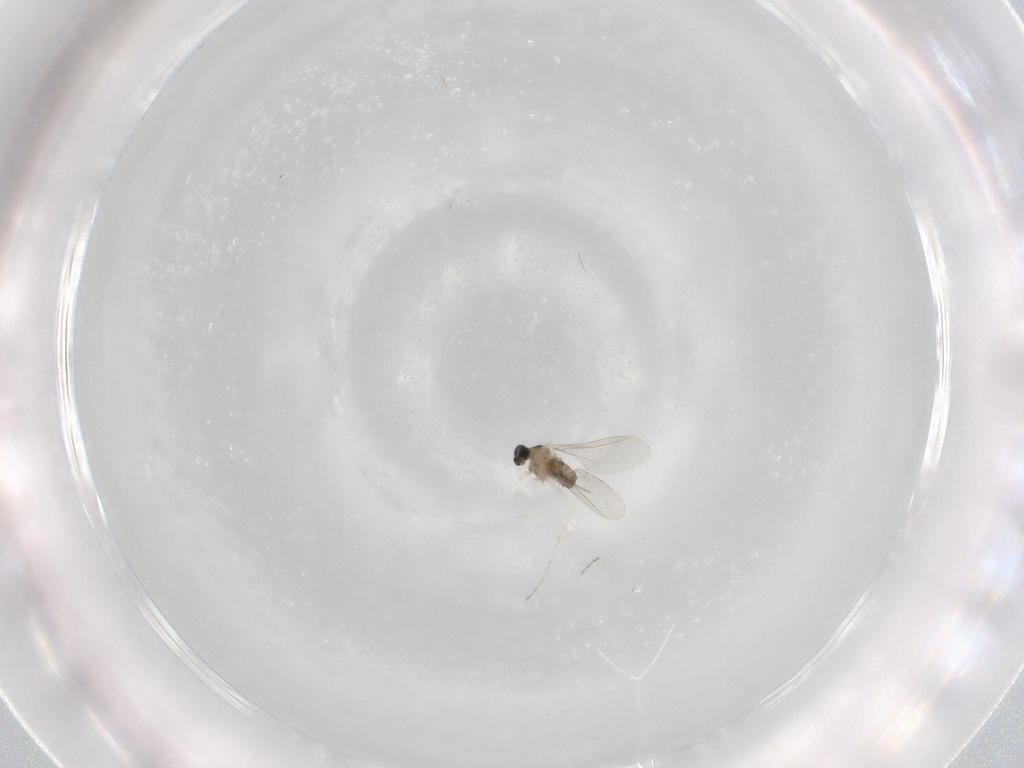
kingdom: Animalia
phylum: Arthropoda
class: Insecta
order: Diptera
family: Cecidomyiidae
